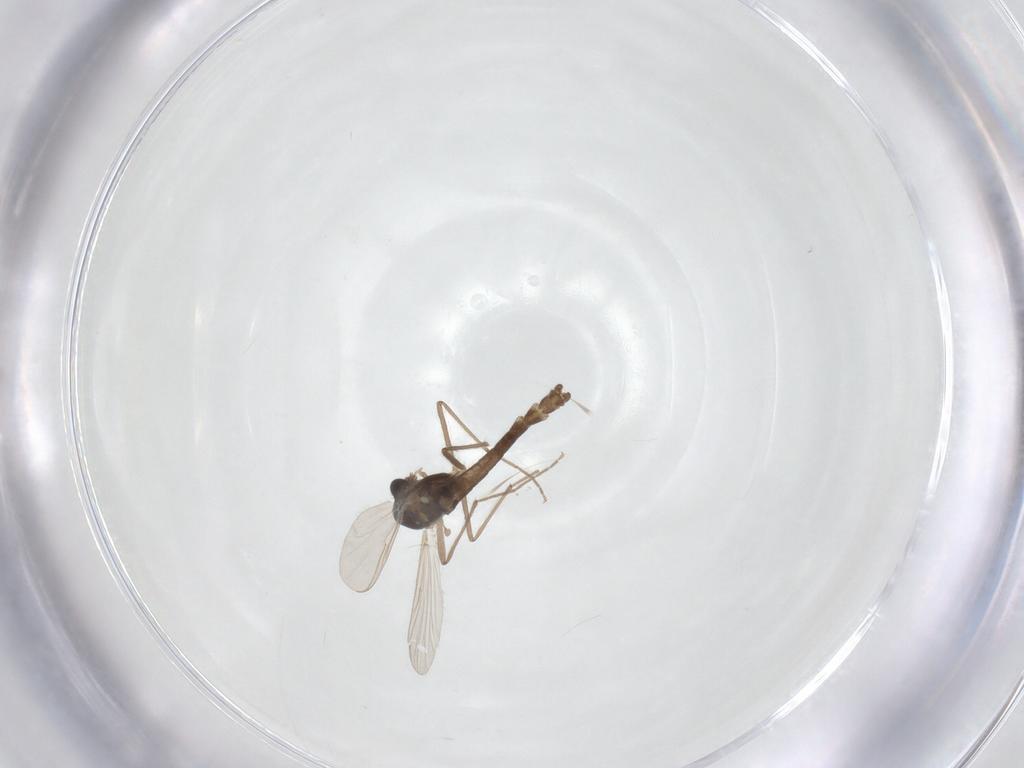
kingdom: Animalia
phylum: Arthropoda
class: Insecta
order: Diptera
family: Chironomidae
